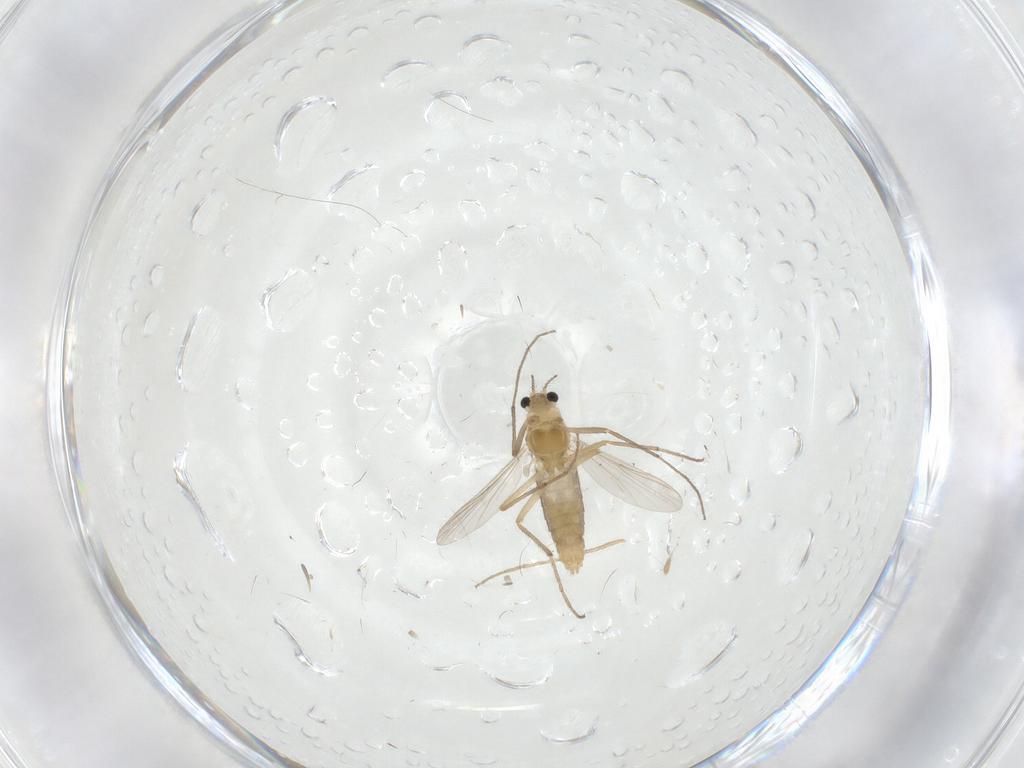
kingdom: Animalia
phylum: Arthropoda
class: Insecta
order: Diptera
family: Chironomidae
